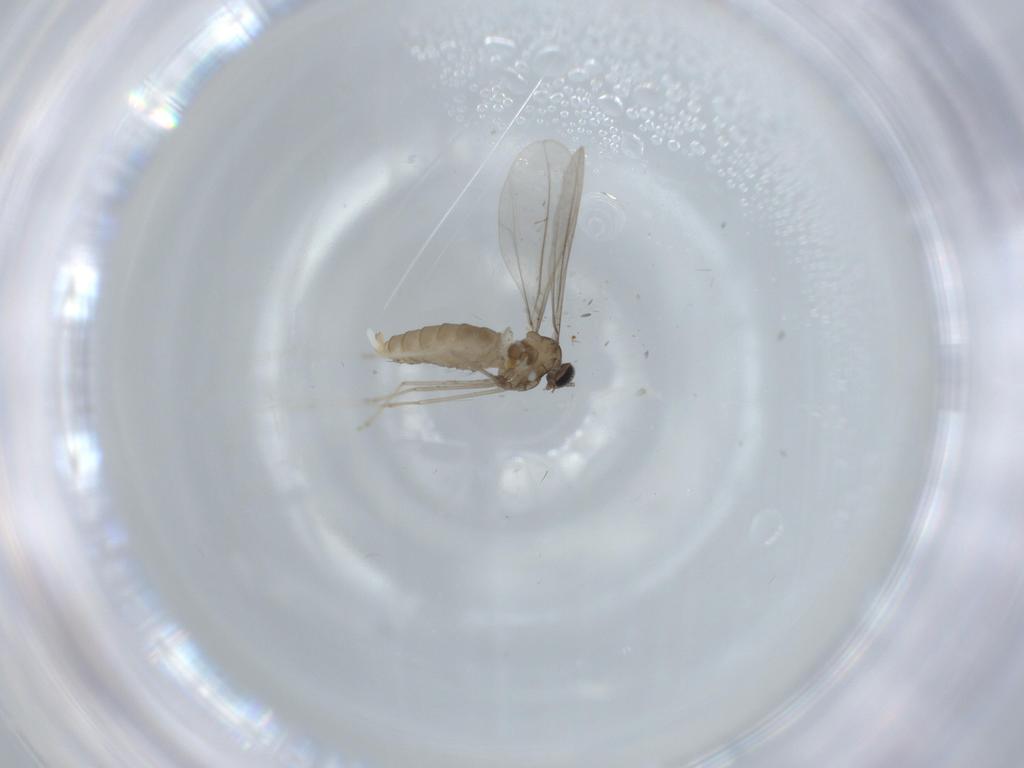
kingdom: Animalia
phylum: Arthropoda
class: Insecta
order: Diptera
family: Cecidomyiidae
